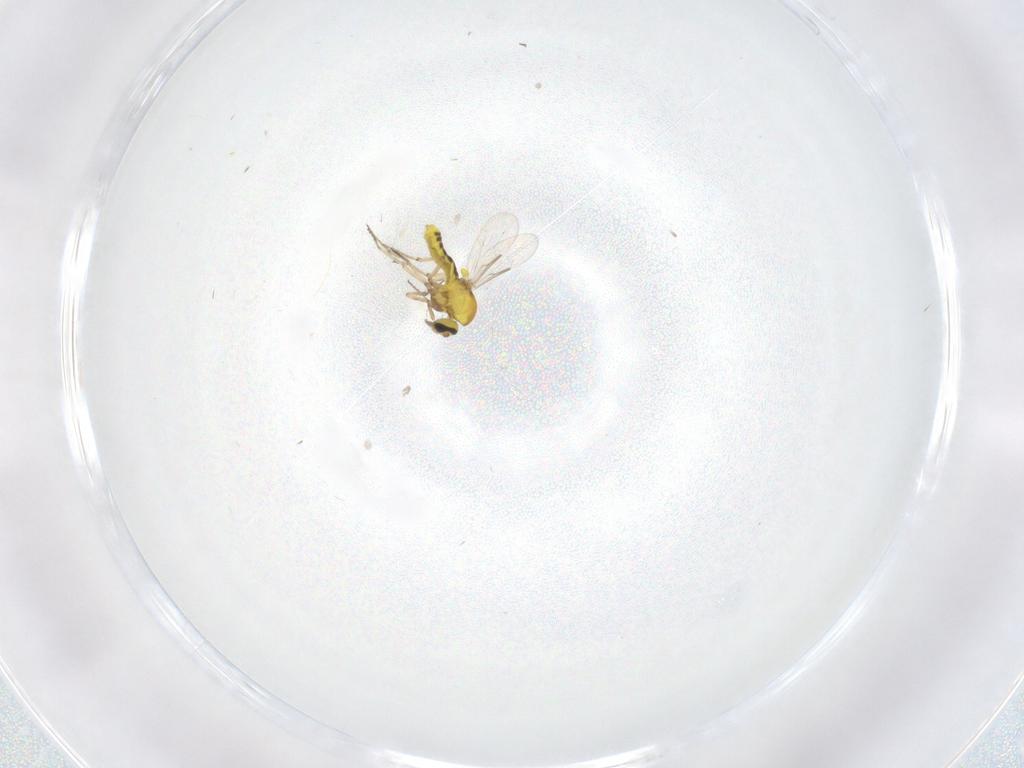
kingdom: Animalia
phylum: Arthropoda
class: Insecta
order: Diptera
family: Ceratopogonidae
